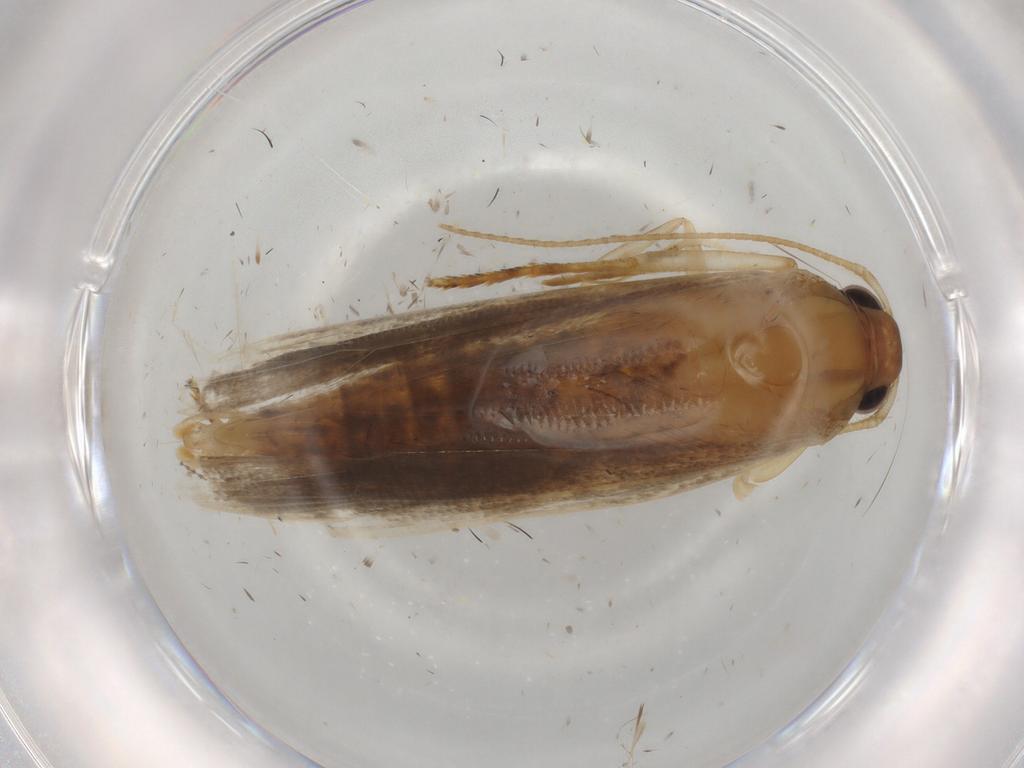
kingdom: Animalia
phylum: Arthropoda
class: Insecta
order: Lepidoptera
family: Gelechiidae
